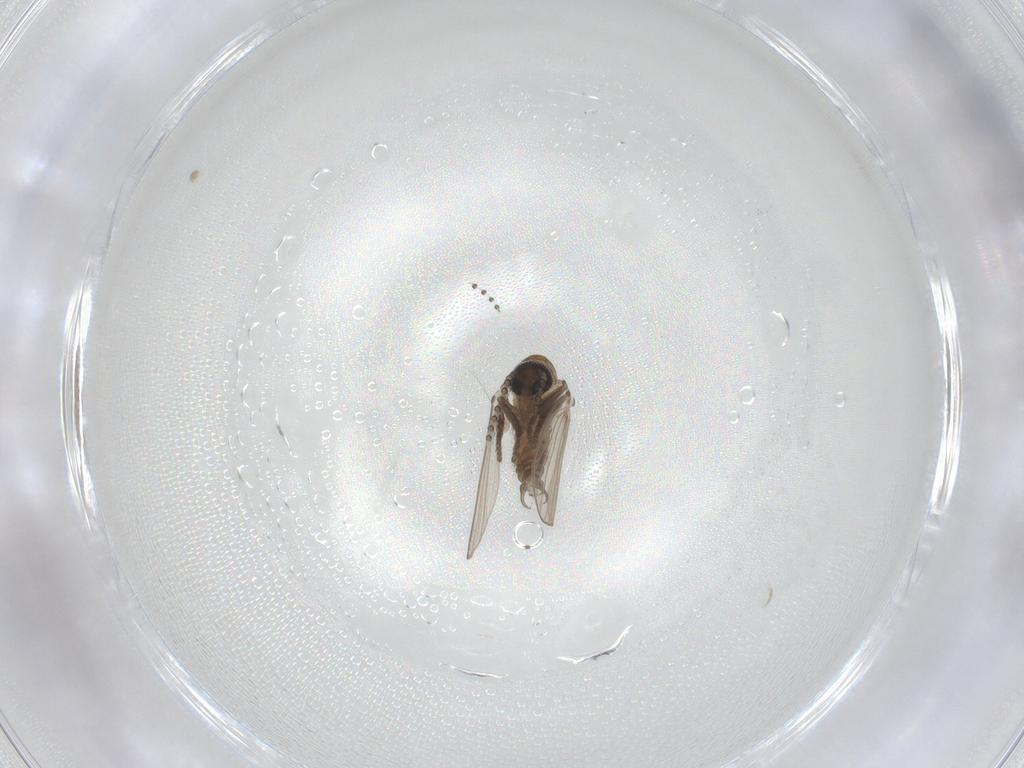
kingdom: Animalia
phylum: Arthropoda
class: Insecta
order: Diptera
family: Psychodidae
